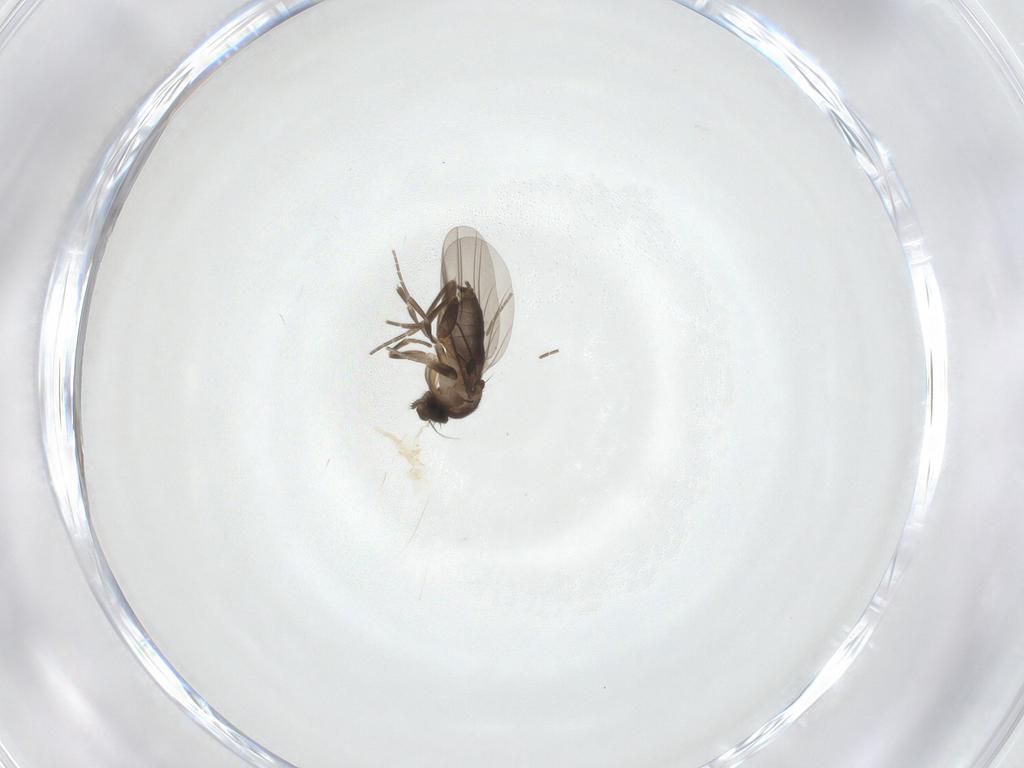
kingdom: Animalia
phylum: Arthropoda
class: Insecta
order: Diptera
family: Phoridae
